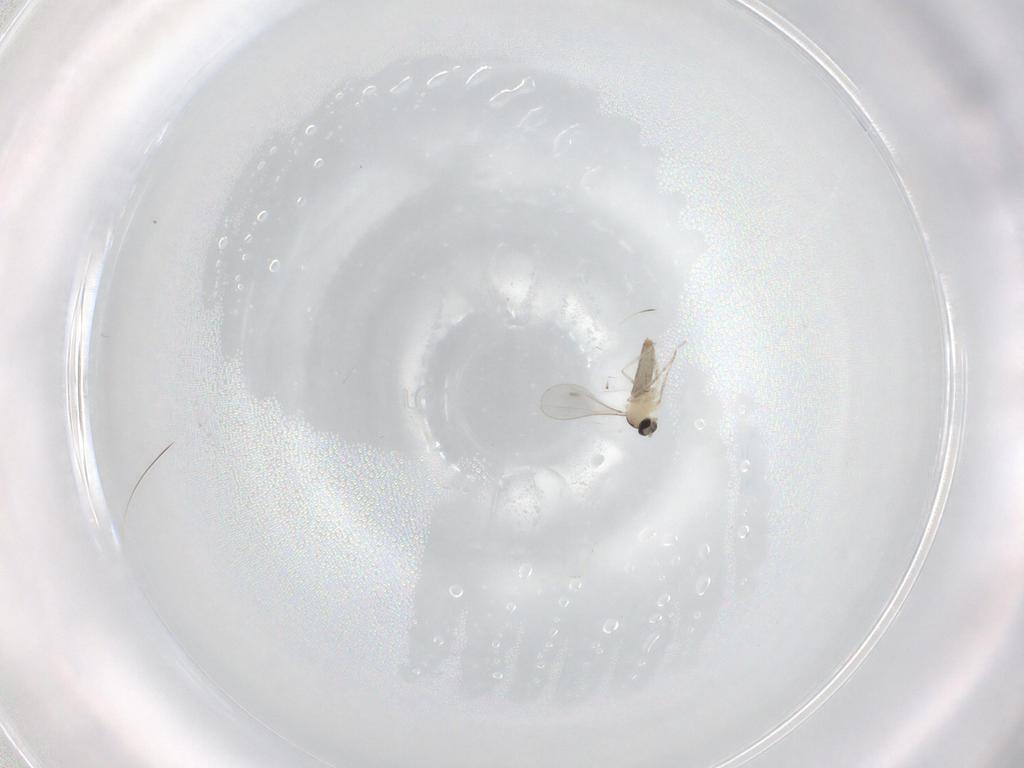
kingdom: Animalia
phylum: Arthropoda
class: Insecta
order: Diptera
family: Cecidomyiidae
